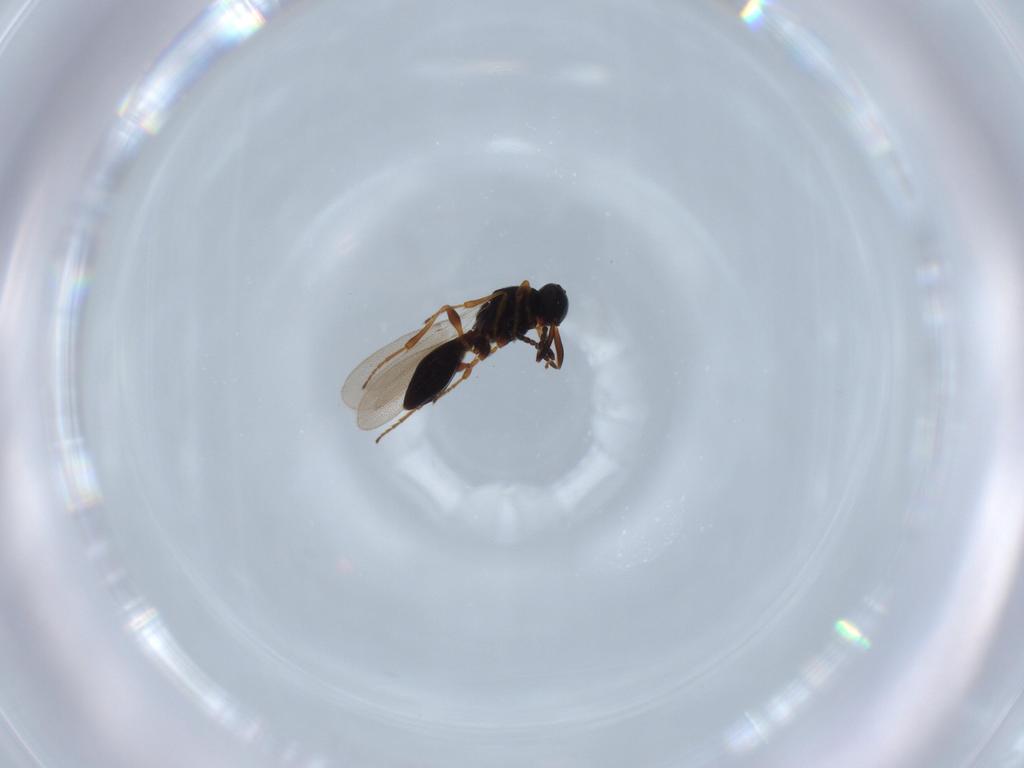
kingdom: Animalia
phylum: Arthropoda
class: Insecta
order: Hymenoptera
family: Platygastridae
